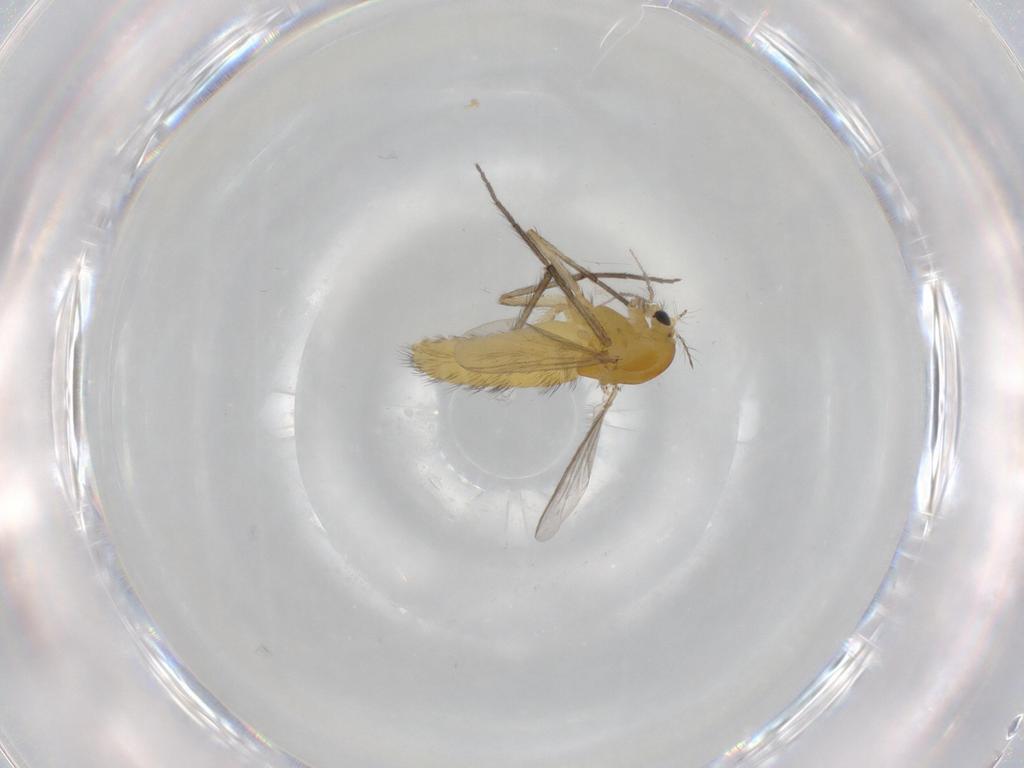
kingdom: Animalia
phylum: Arthropoda
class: Insecta
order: Diptera
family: Chironomidae
